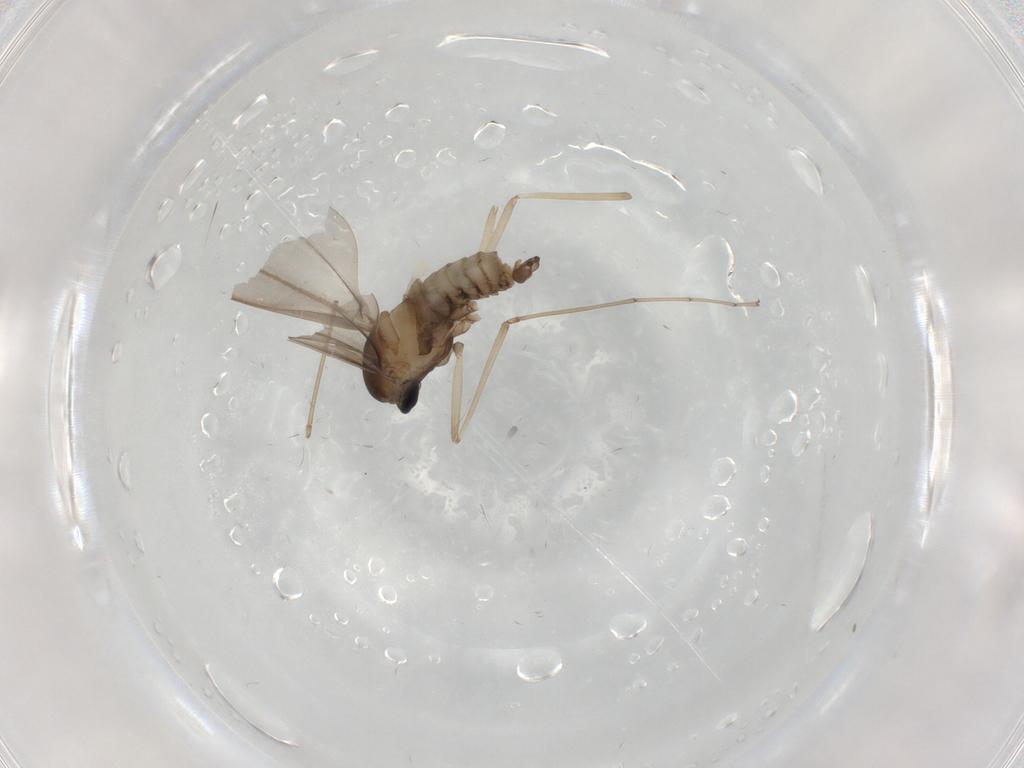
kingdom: Animalia
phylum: Arthropoda
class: Insecta
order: Diptera
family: Cecidomyiidae
